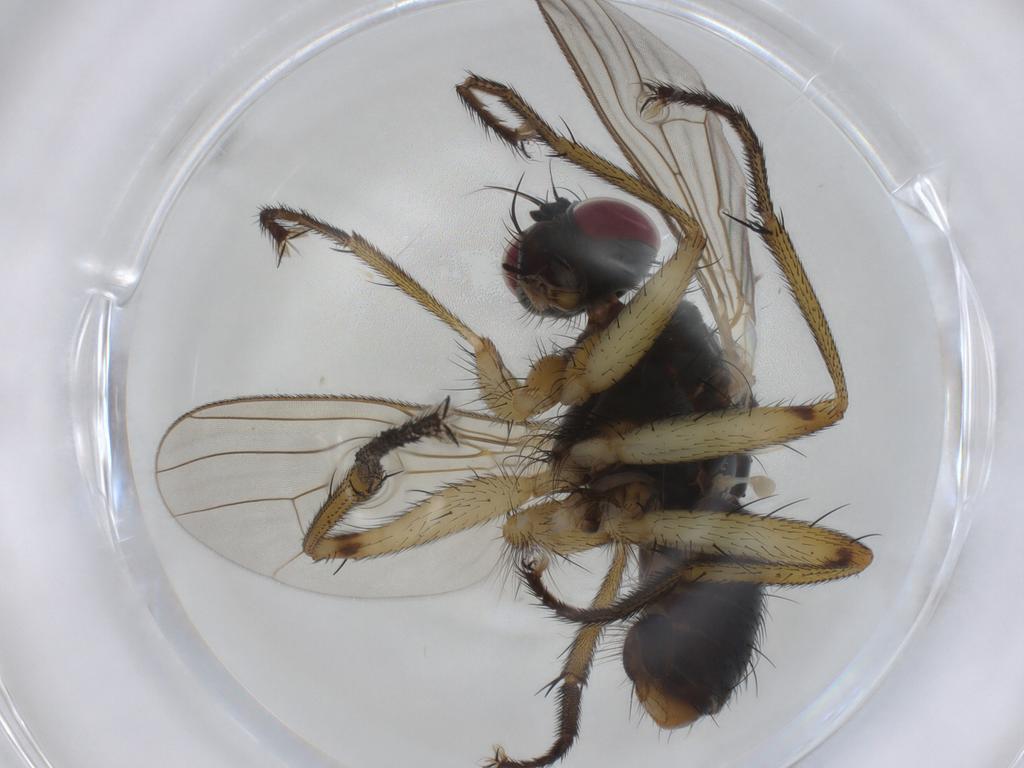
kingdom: Animalia
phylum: Arthropoda
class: Insecta
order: Diptera
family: Muscidae
